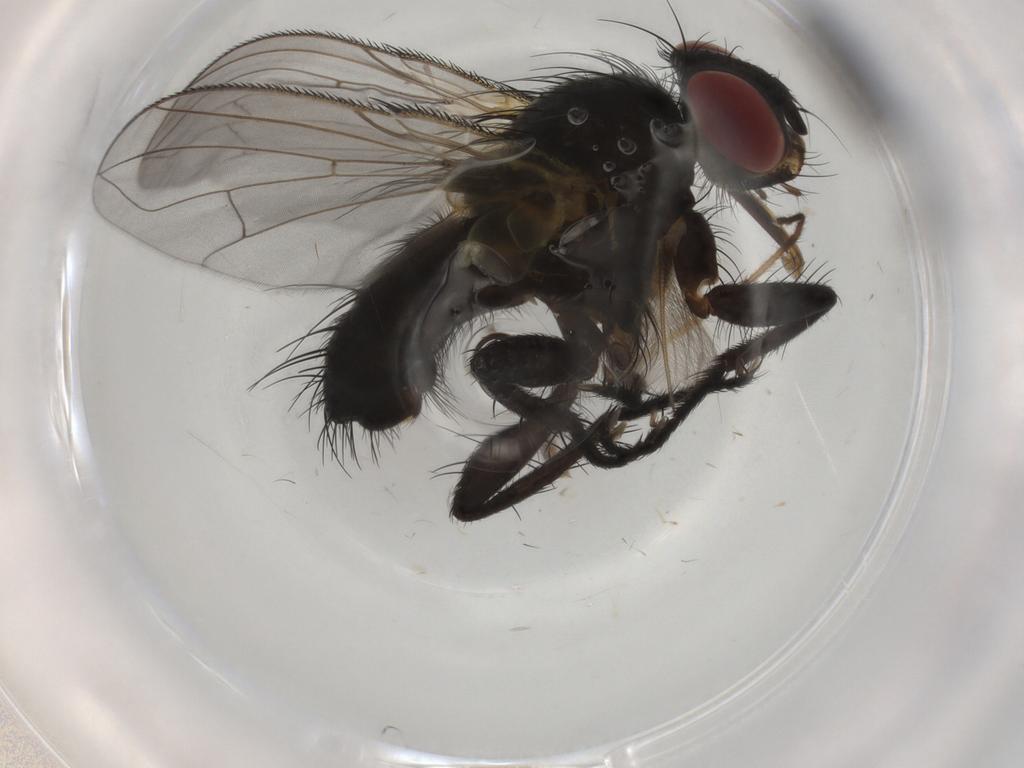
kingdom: Animalia
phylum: Arthropoda
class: Insecta
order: Diptera
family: Calliphoridae
